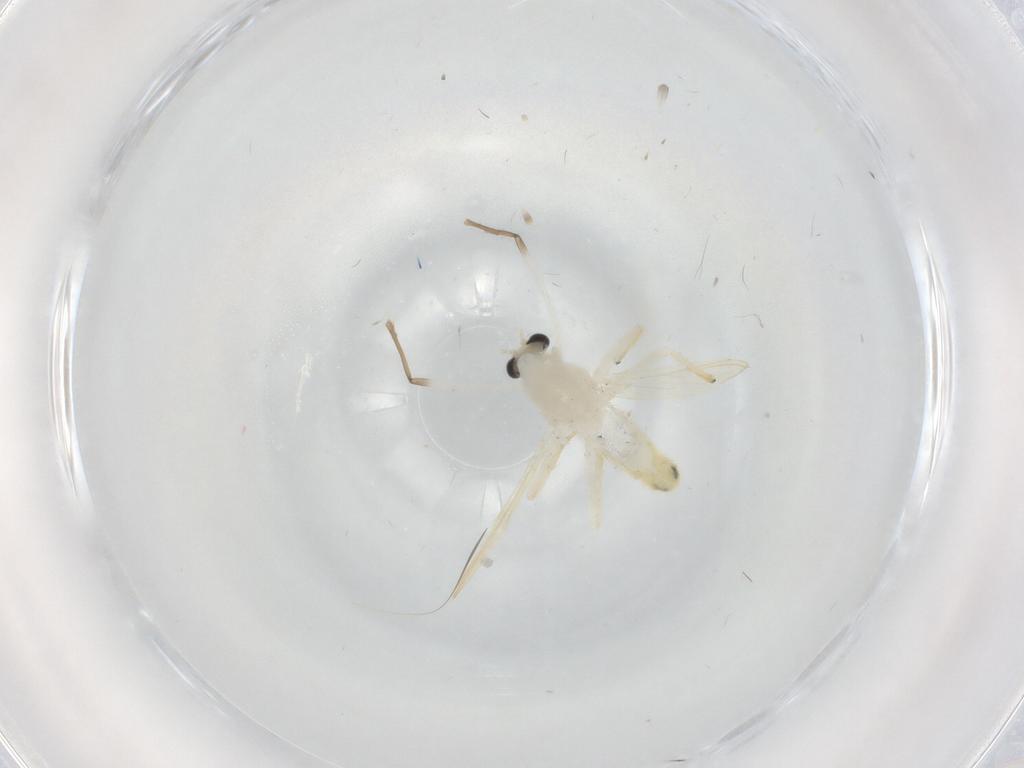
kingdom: Animalia
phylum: Arthropoda
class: Insecta
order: Diptera
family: Chironomidae
